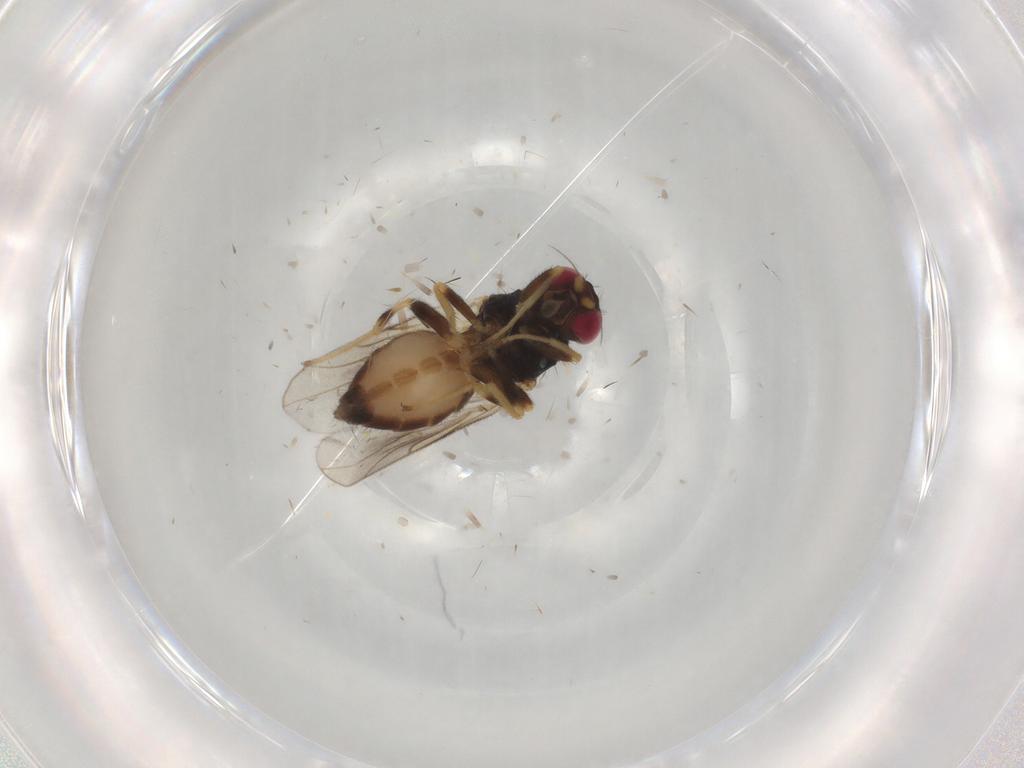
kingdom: Animalia
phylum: Arthropoda
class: Insecta
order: Diptera
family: Chloropidae
